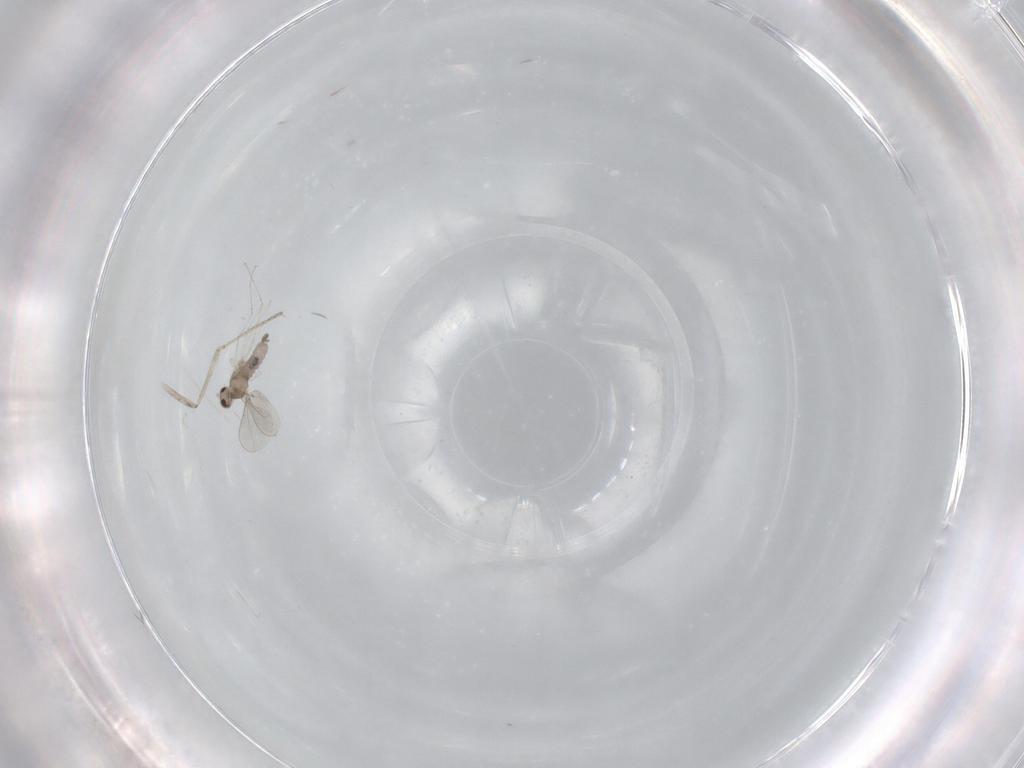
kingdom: Animalia
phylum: Arthropoda
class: Insecta
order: Diptera
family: Cecidomyiidae
